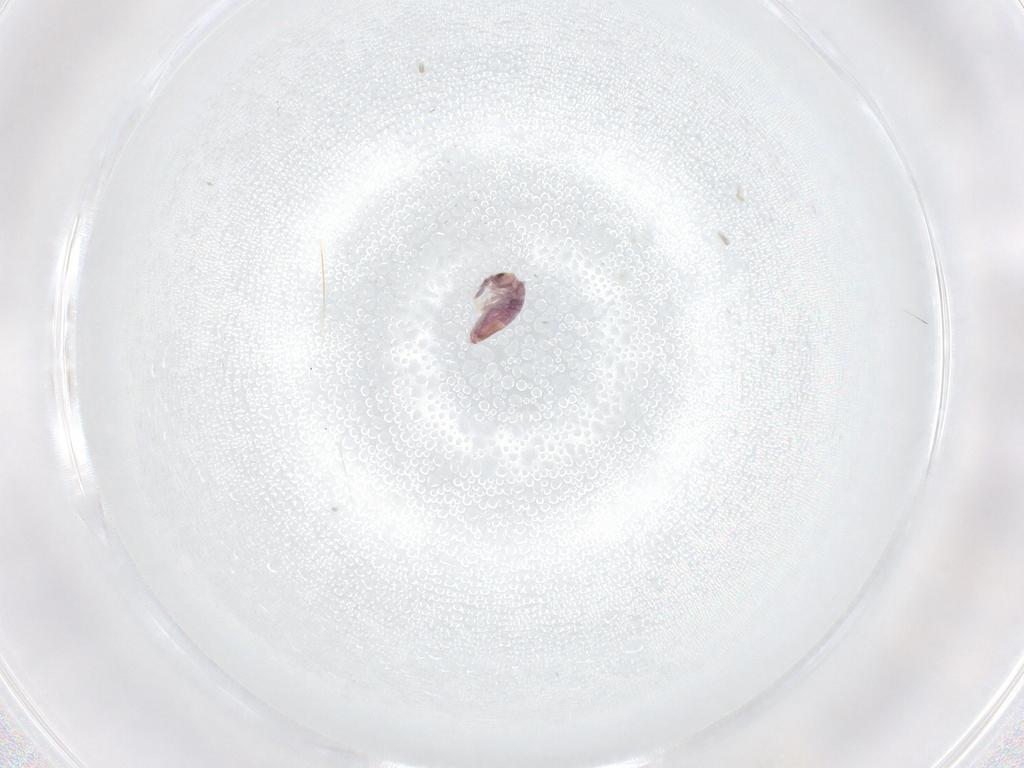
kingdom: Animalia
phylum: Arthropoda
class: Collembola
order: Entomobryomorpha
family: Entomobryidae
